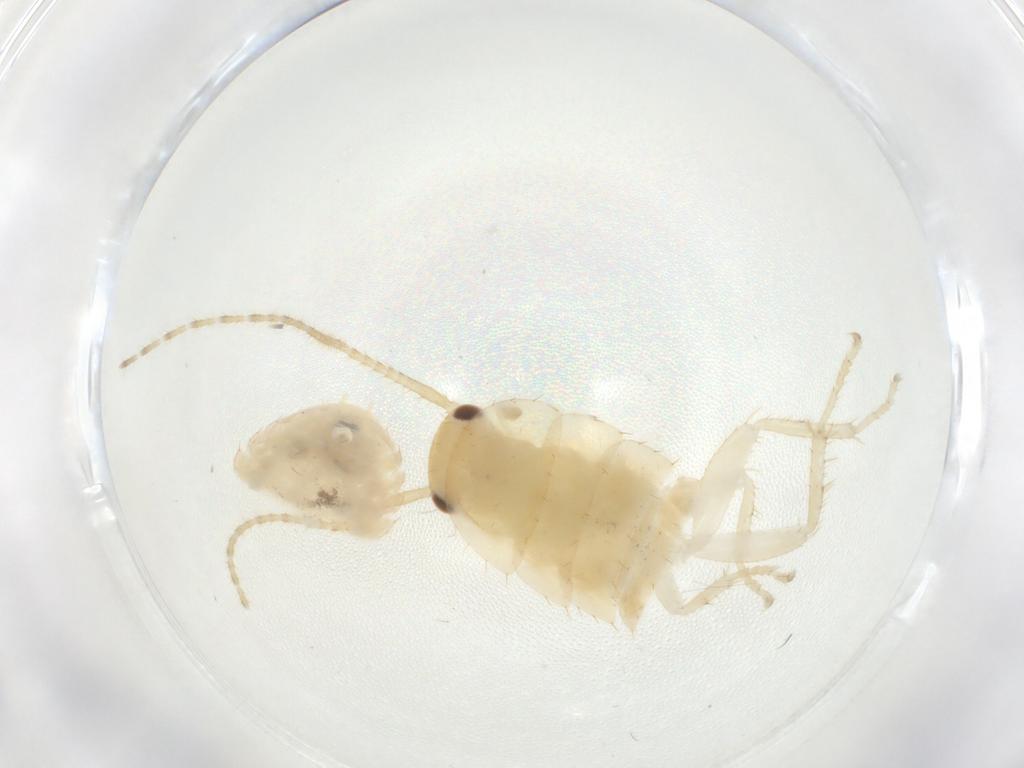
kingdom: Animalia
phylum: Arthropoda
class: Insecta
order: Blattodea
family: Ectobiidae
